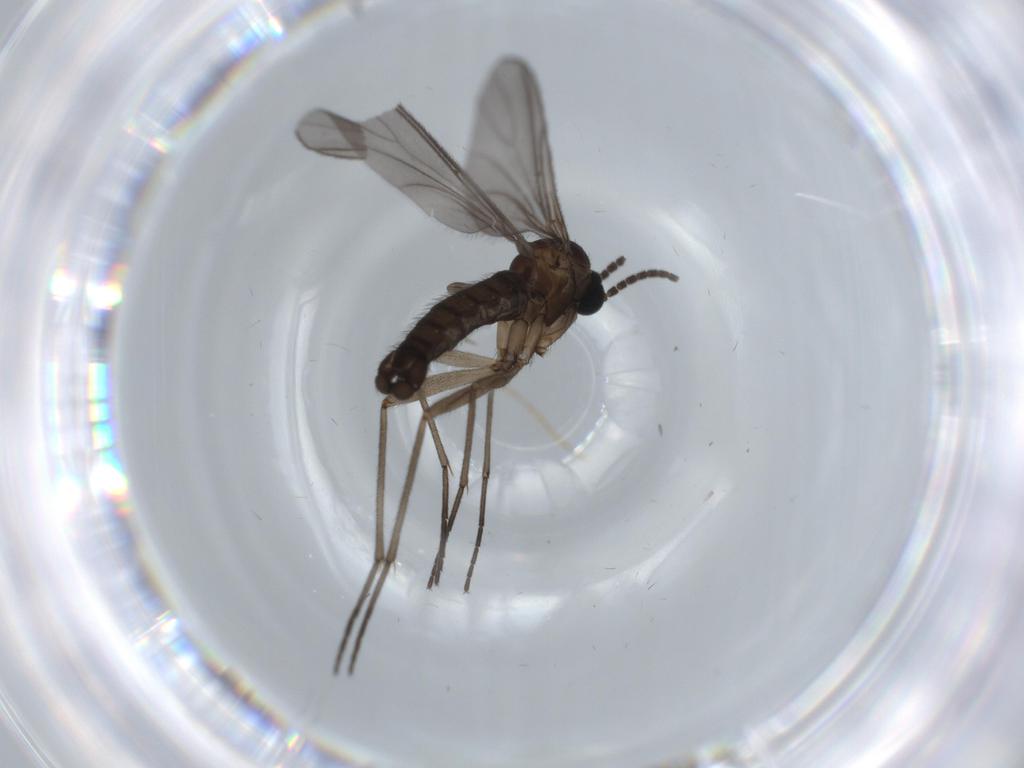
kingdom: Animalia
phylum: Arthropoda
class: Insecta
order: Diptera
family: Sciaridae
